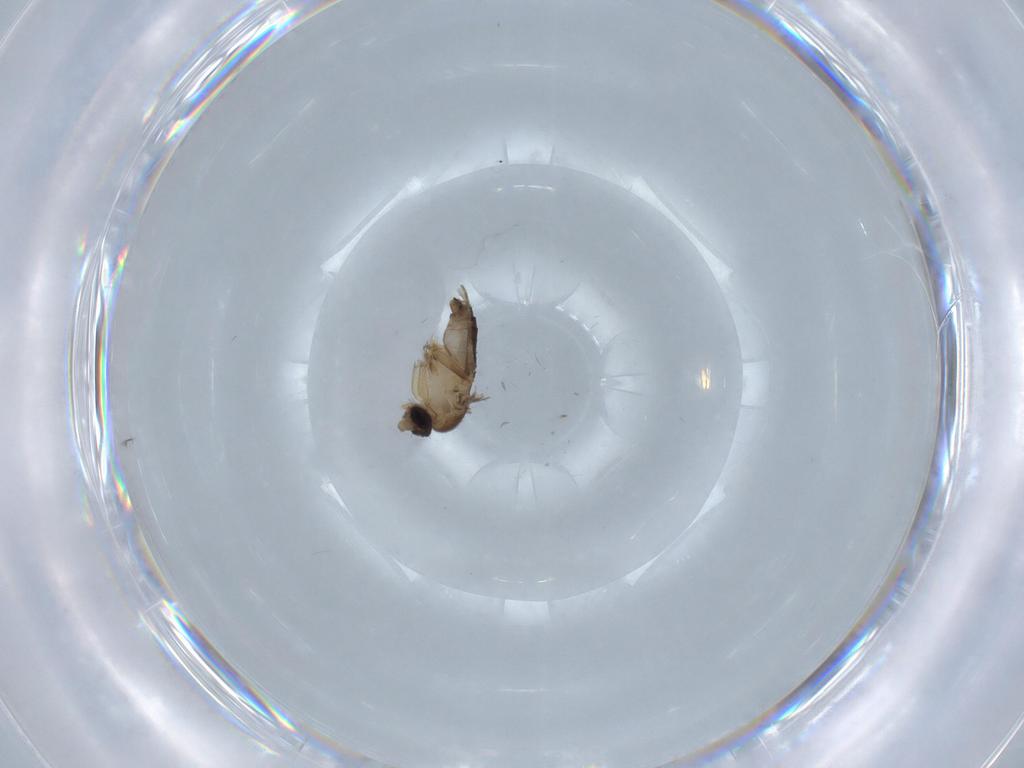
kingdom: Animalia
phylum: Arthropoda
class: Insecta
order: Diptera
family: Phoridae
